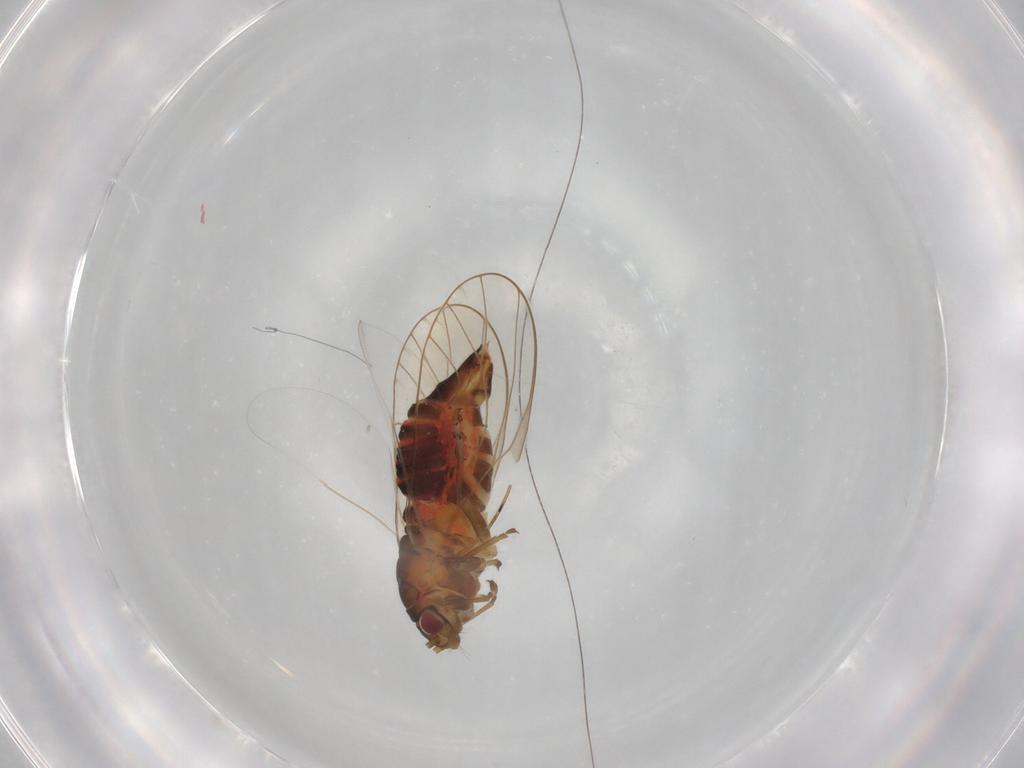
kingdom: Animalia
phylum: Arthropoda
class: Insecta
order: Hemiptera
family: Psyllidae
